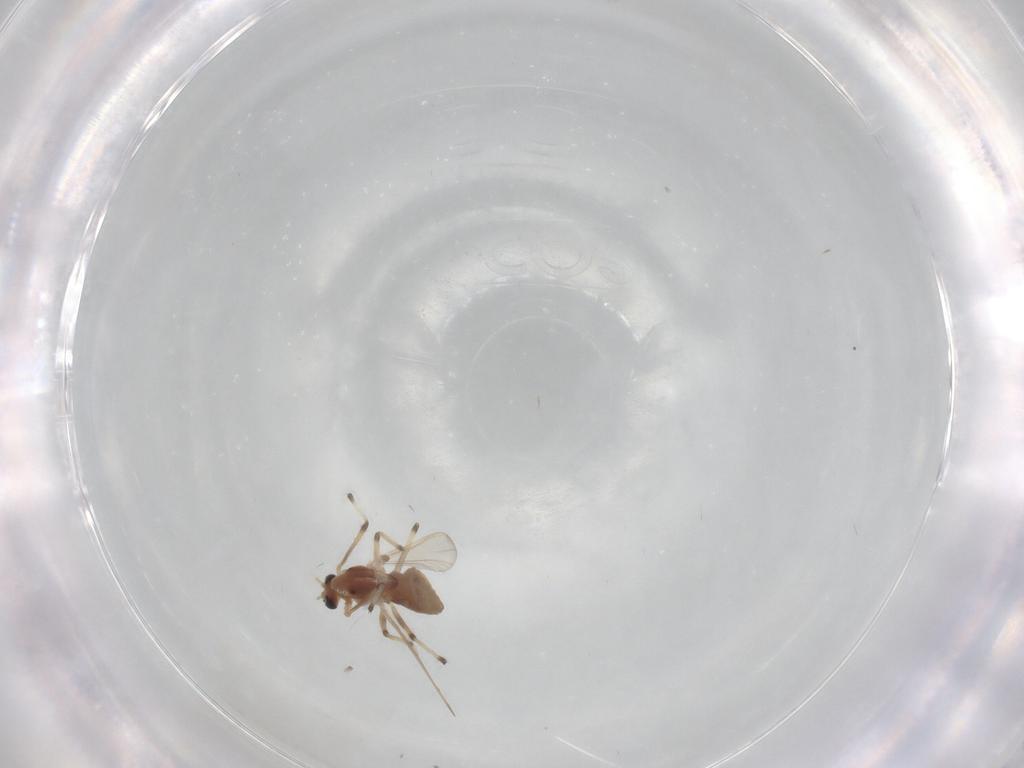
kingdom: Animalia
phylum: Arthropoda
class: Insecta
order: Diptera
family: Chironomidae
